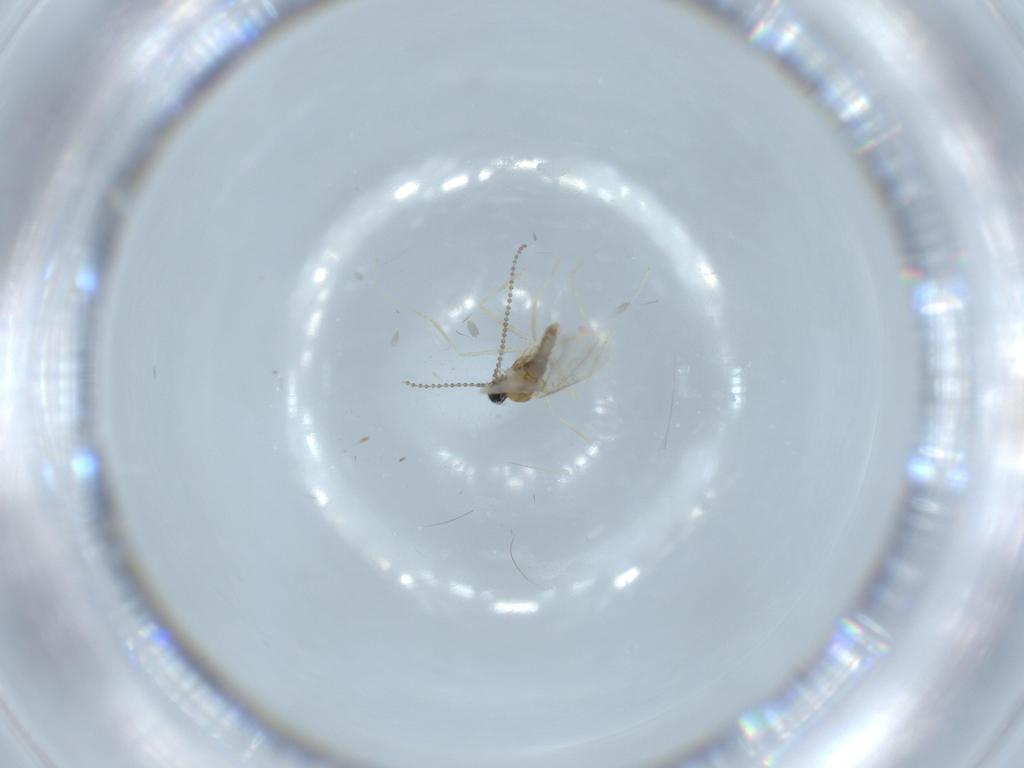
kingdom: Animalia
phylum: Arthropoda
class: Insecta
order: Diptera
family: Cecidomyiidae
